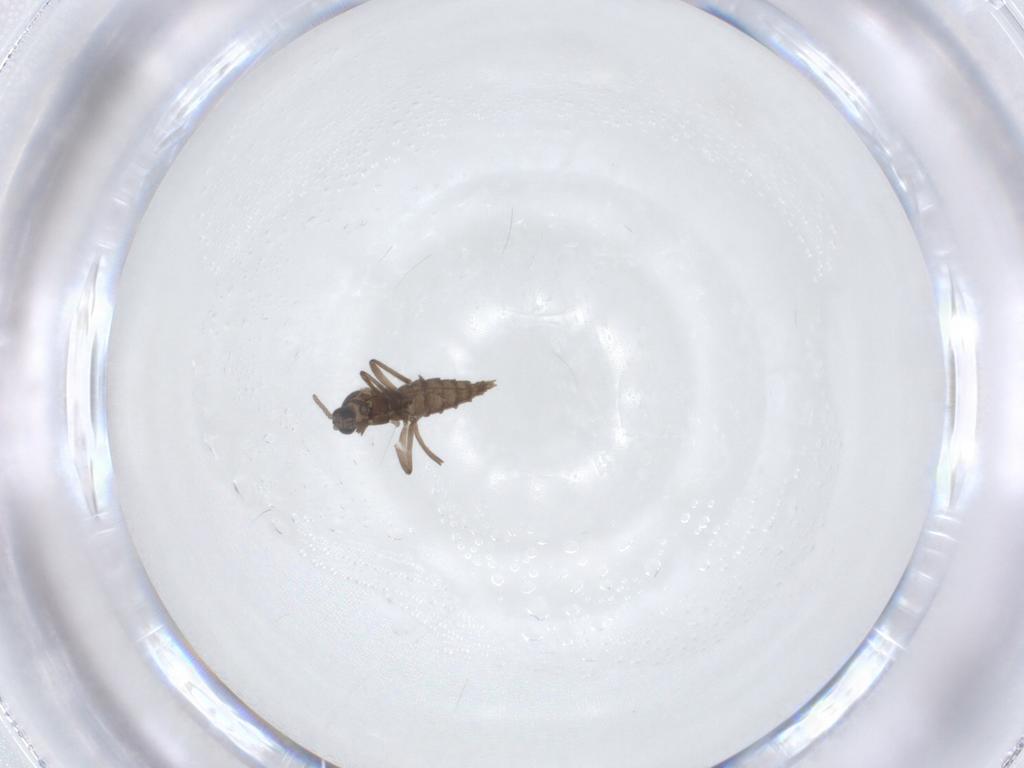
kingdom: Animalia
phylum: Arthropoda
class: Insecta
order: Diptera
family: Cecidomyiidae
